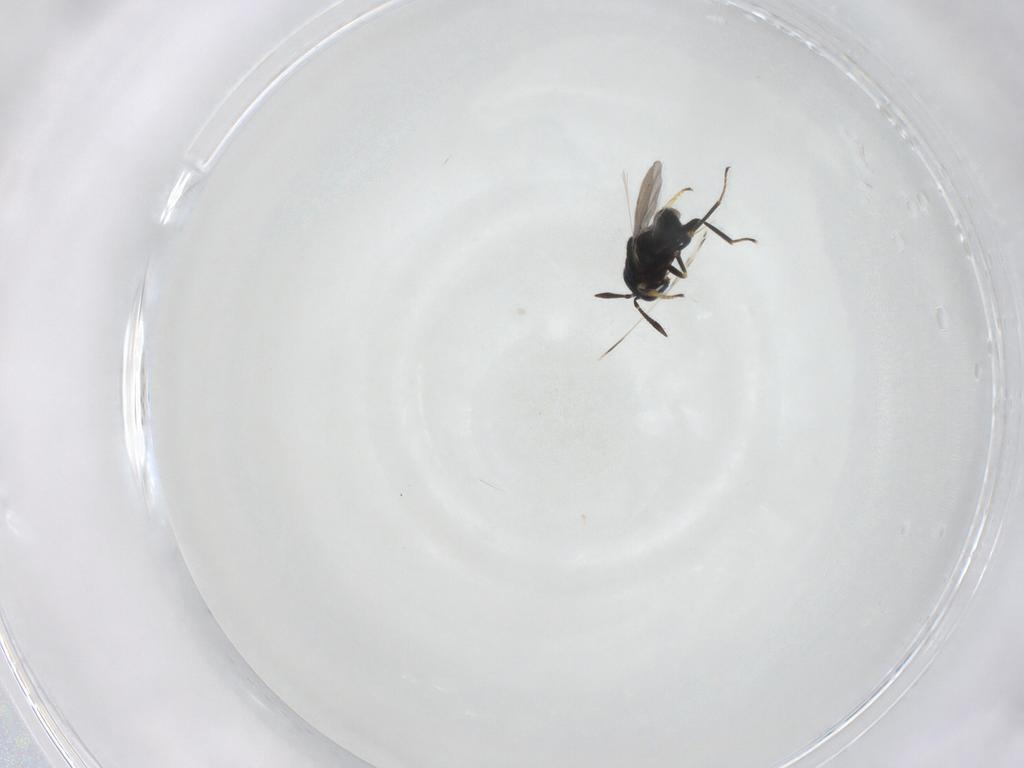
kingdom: Animalia
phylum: Arthropoda
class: Insecta
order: Hymenoptera
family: Encyrtidae
